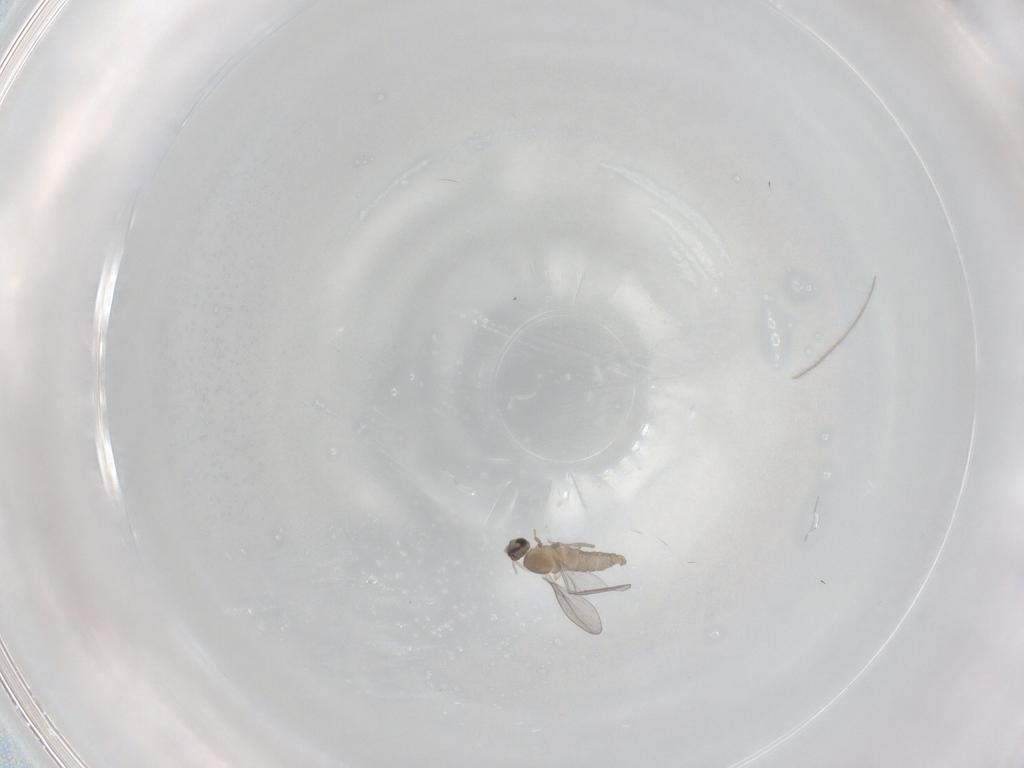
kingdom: Animalia
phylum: Arthropoda
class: Insecta
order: Diptera
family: Cecidomyiidae
